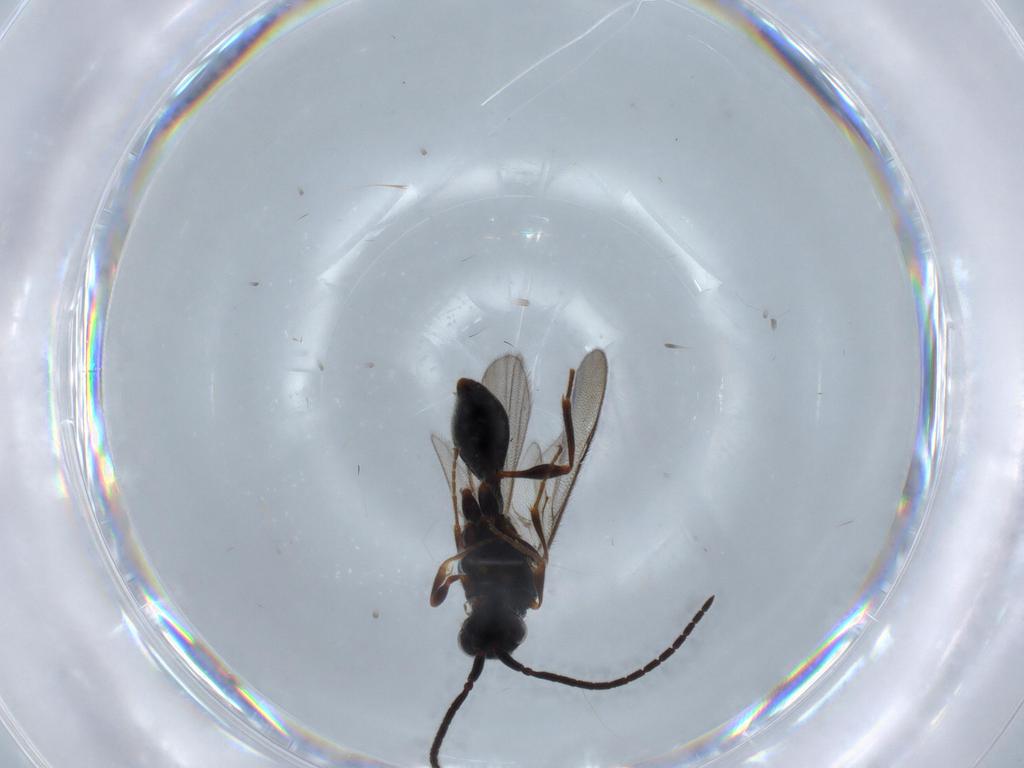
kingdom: Animalia
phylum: Arthropoda
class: Insecta
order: Hymenoptera
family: Diapriidae
